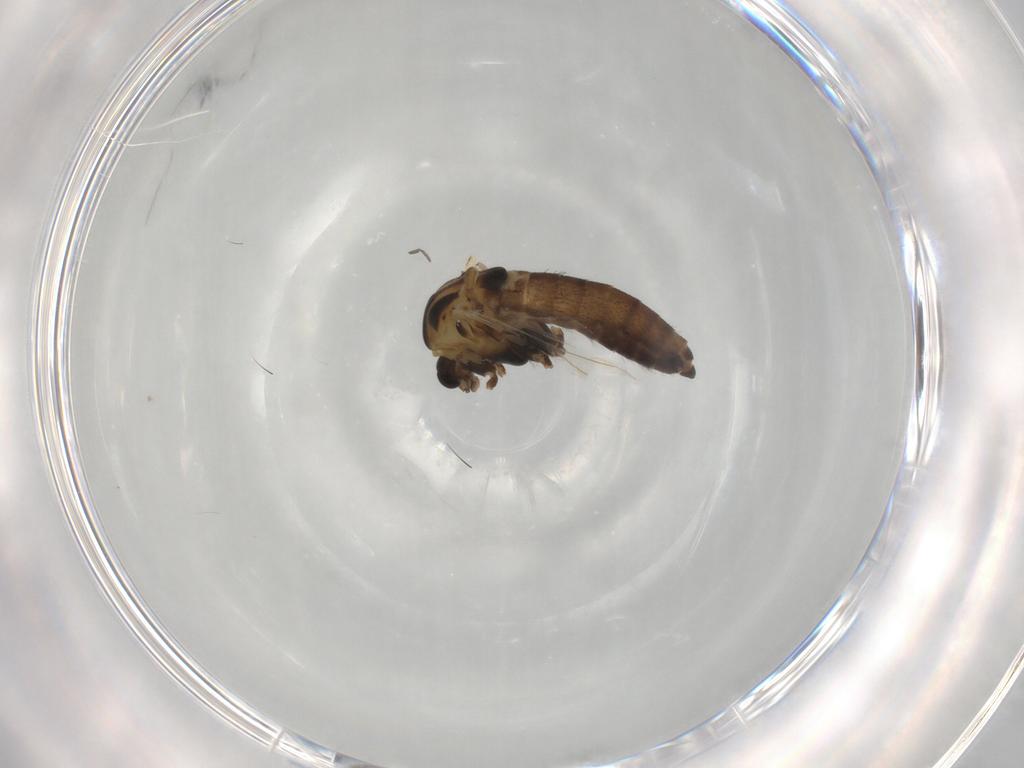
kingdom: Animalia
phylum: Arthropoda
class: Insecta
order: Diptera
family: Chironomidae
